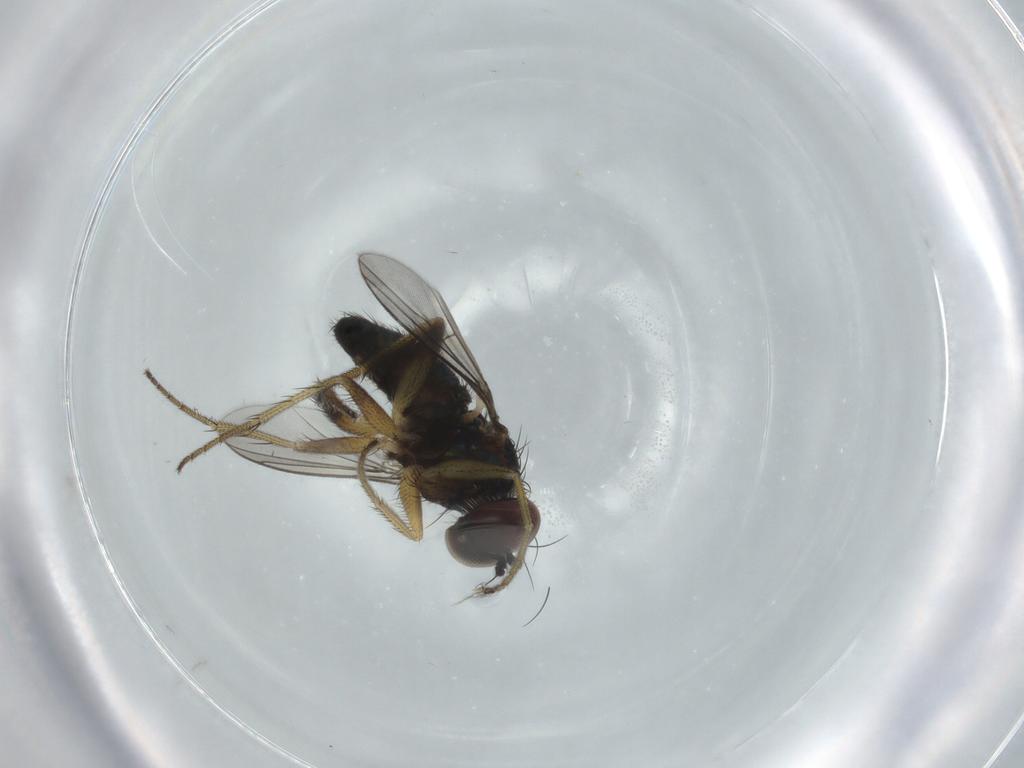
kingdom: Animalia
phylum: Arthropoda
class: Insecta
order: Diptera
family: Dolichopodidae
